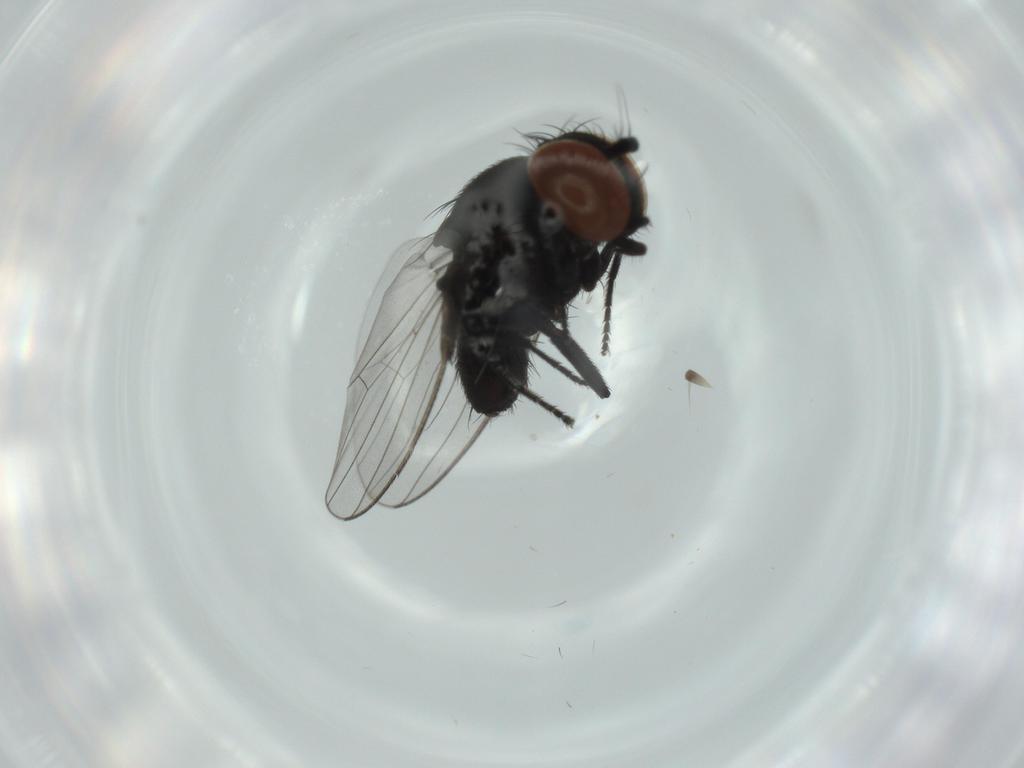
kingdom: Animalia
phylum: Arthropoda
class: Insecta
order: Diptera
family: Milichiidae
